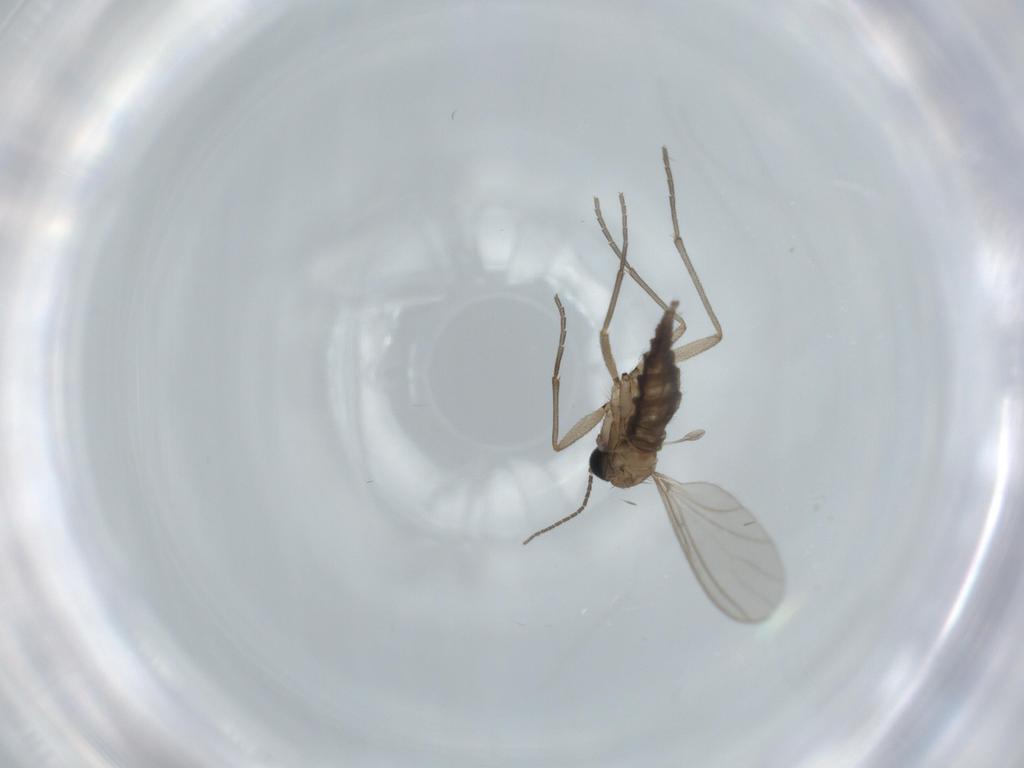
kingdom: Animalia
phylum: Arthropoda
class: Insecta
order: Diptera
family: Sciaridae
